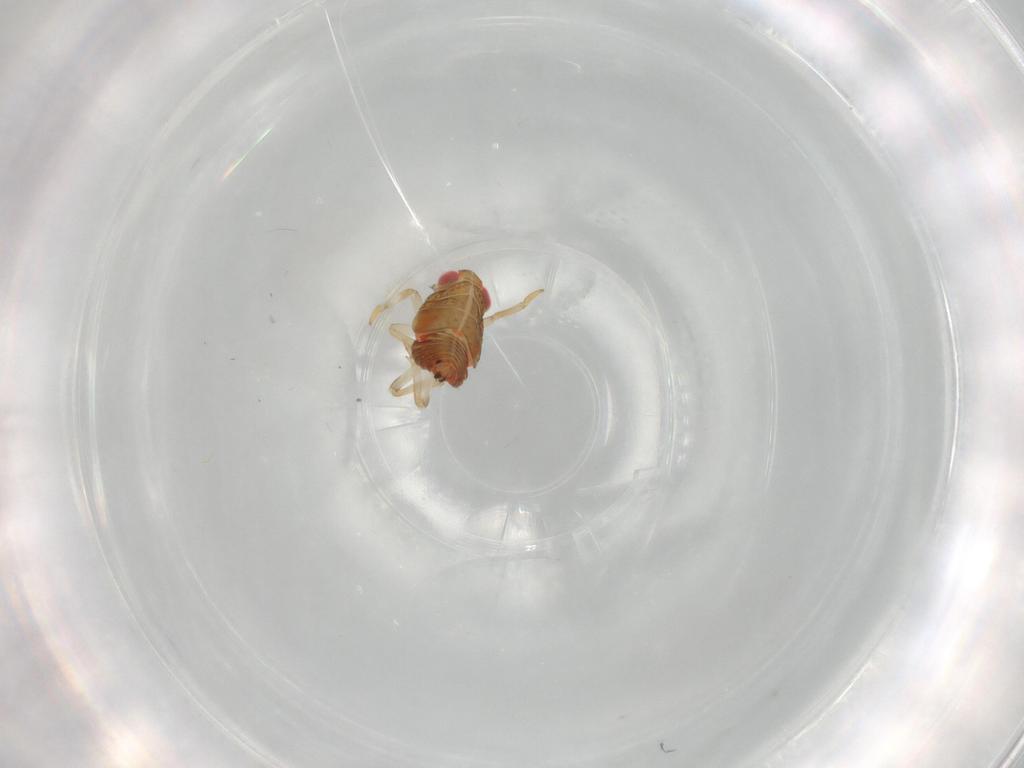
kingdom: Animalia
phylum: Arthropoda
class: Insecta
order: Hemiptera
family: Issidae
